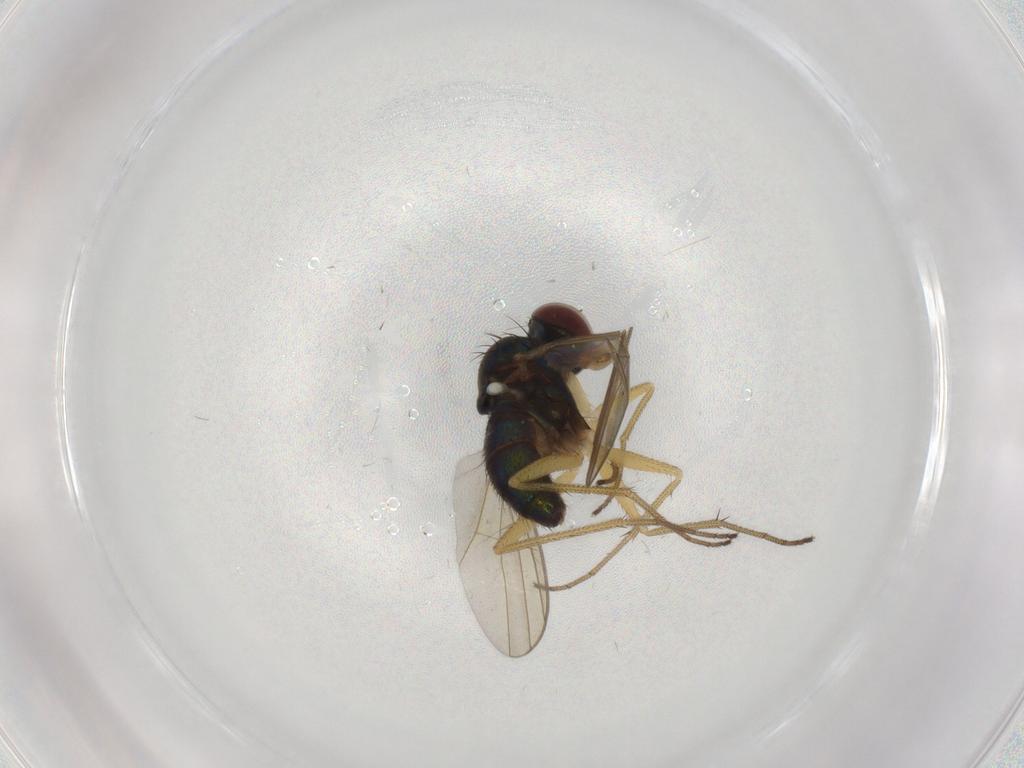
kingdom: Animalia
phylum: Arthropoda
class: Insecta
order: Diptera
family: Dolichopodidae
